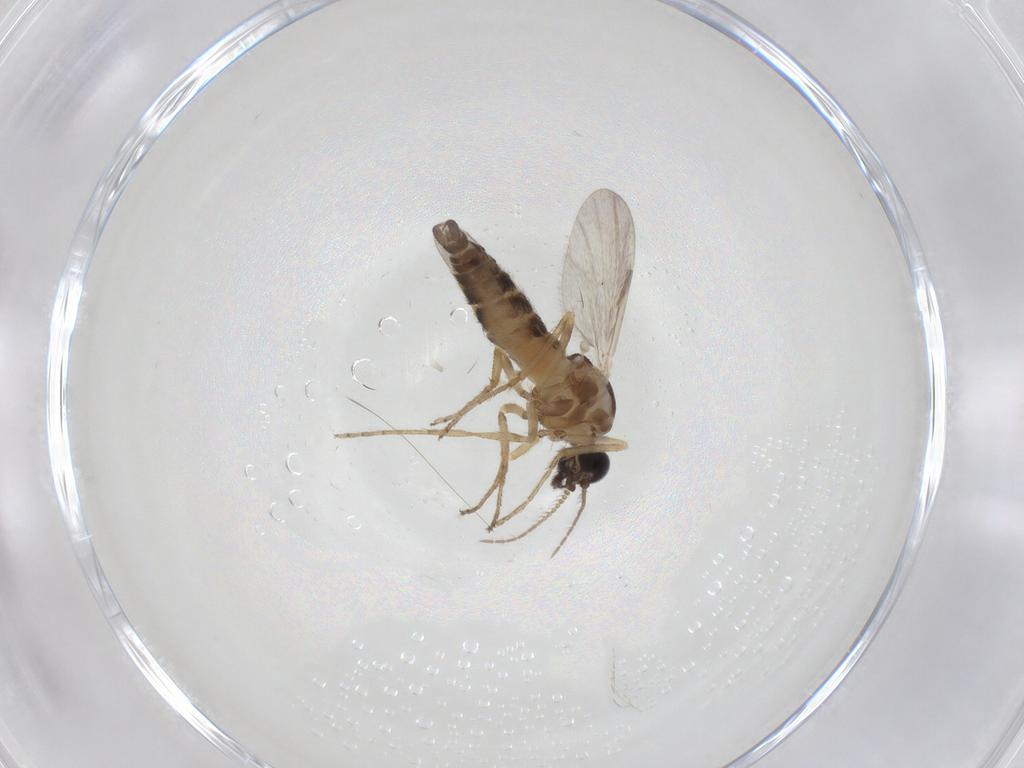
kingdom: Animalia
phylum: Arthropoda
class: Insecta
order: Diptera
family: Ceratopogonidae
